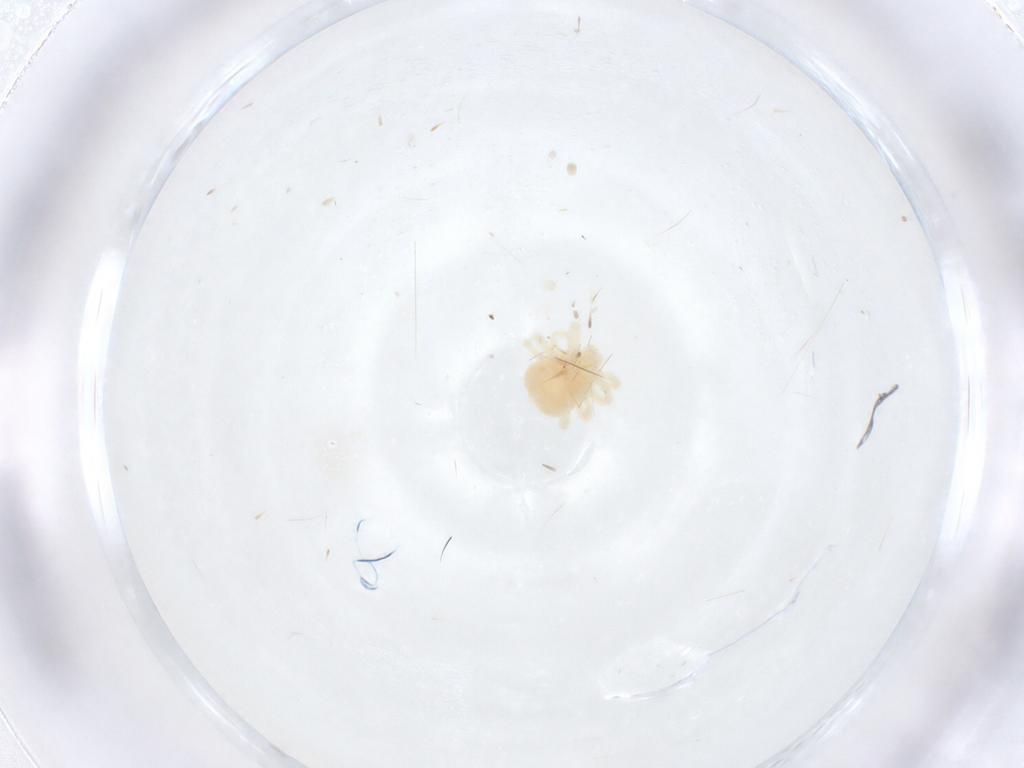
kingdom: Animalia
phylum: Arthropoda
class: Arachnida
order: Trombidiformes
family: Anystidae
